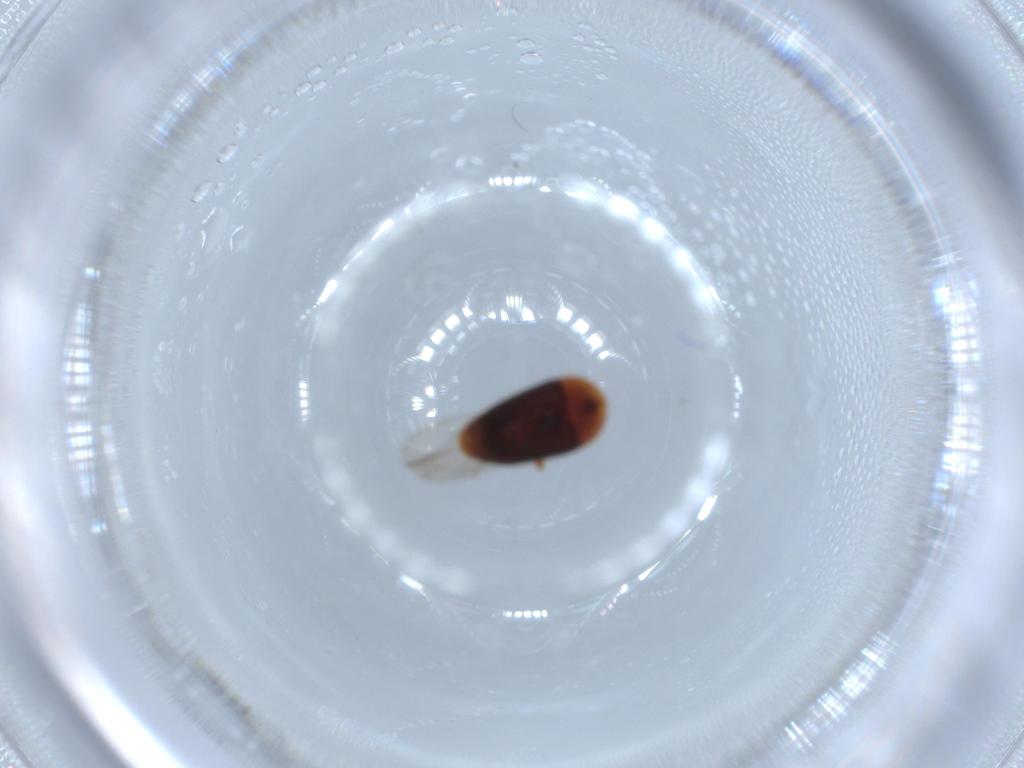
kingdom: Animalia
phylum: Arthropoda
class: Insecta
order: Coleoptera
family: Corylophidae
